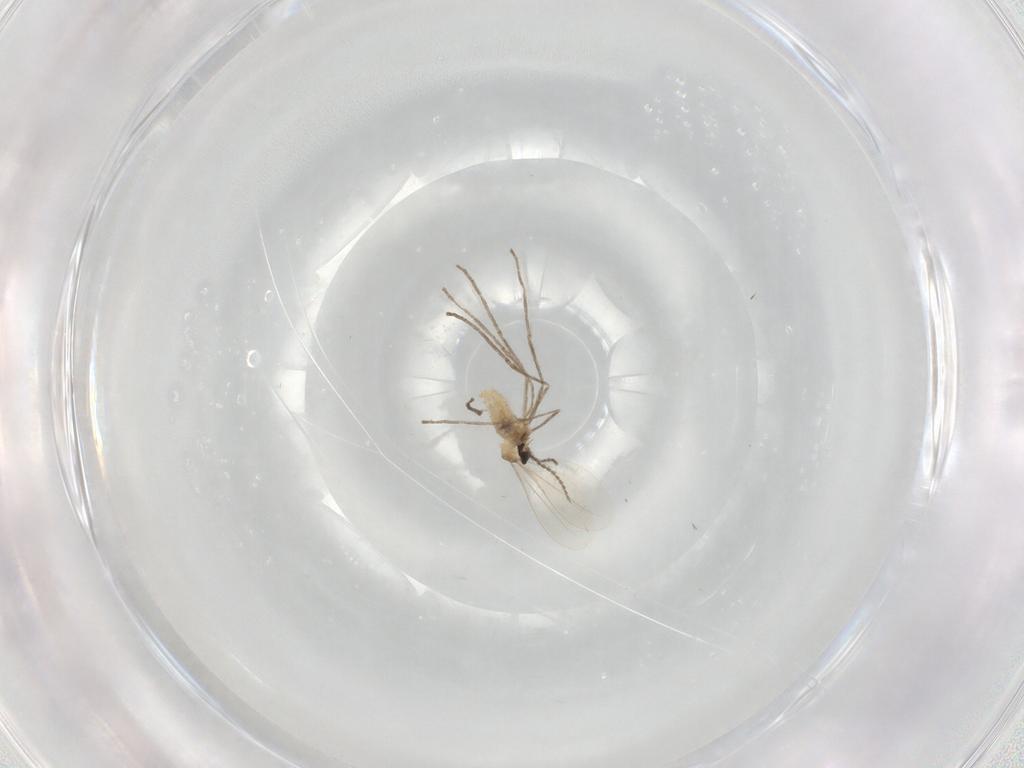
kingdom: Animalia
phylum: Arthropoda
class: Insecta
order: Diptera
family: Cecidomyiidae
